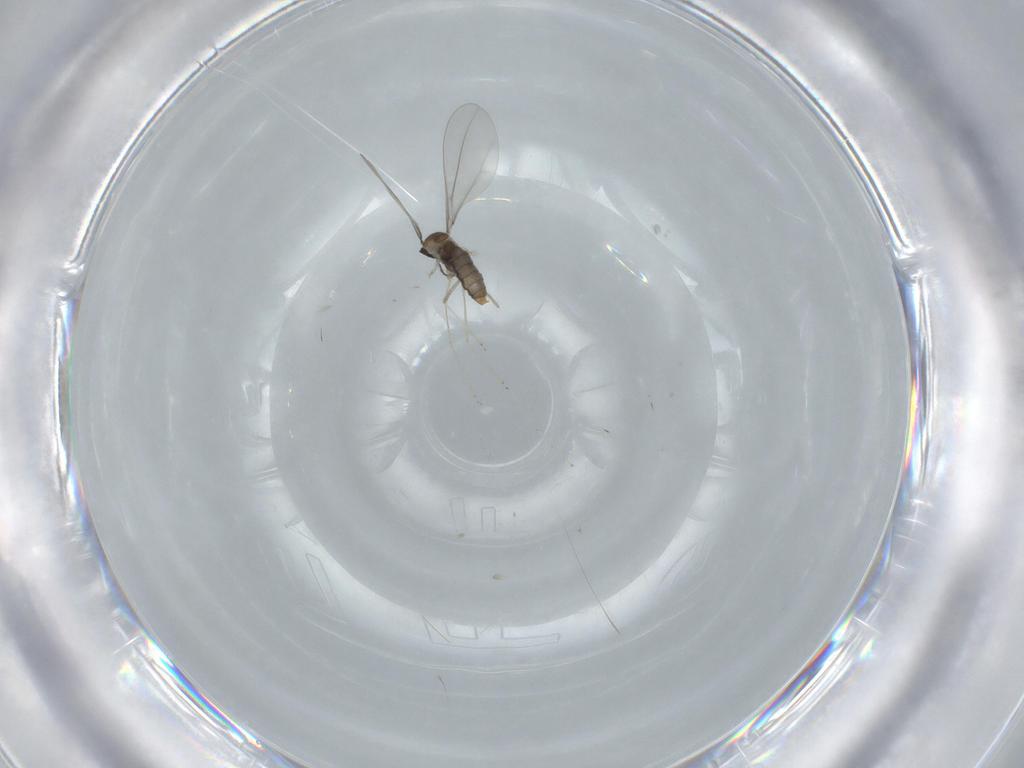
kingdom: Animalia
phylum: Arthropoda
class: Insecta
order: Diptera
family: Cecidomyiidae
